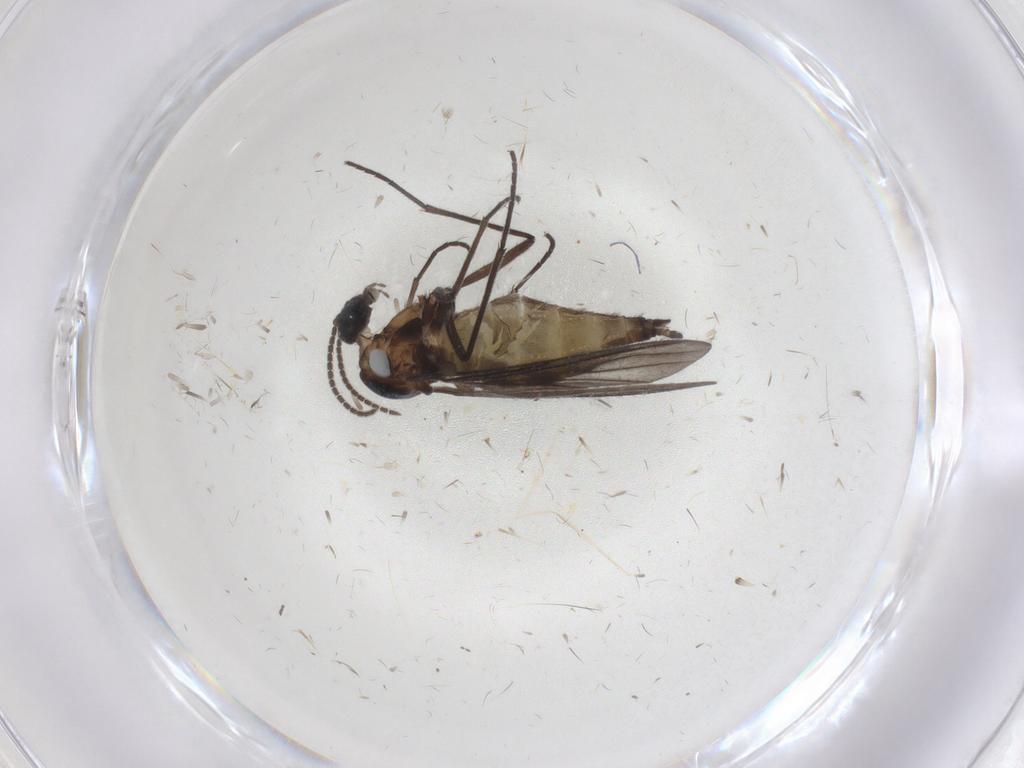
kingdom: Animalia
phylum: Arthropoda
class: Insecta
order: Diptera
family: Sciaridae
